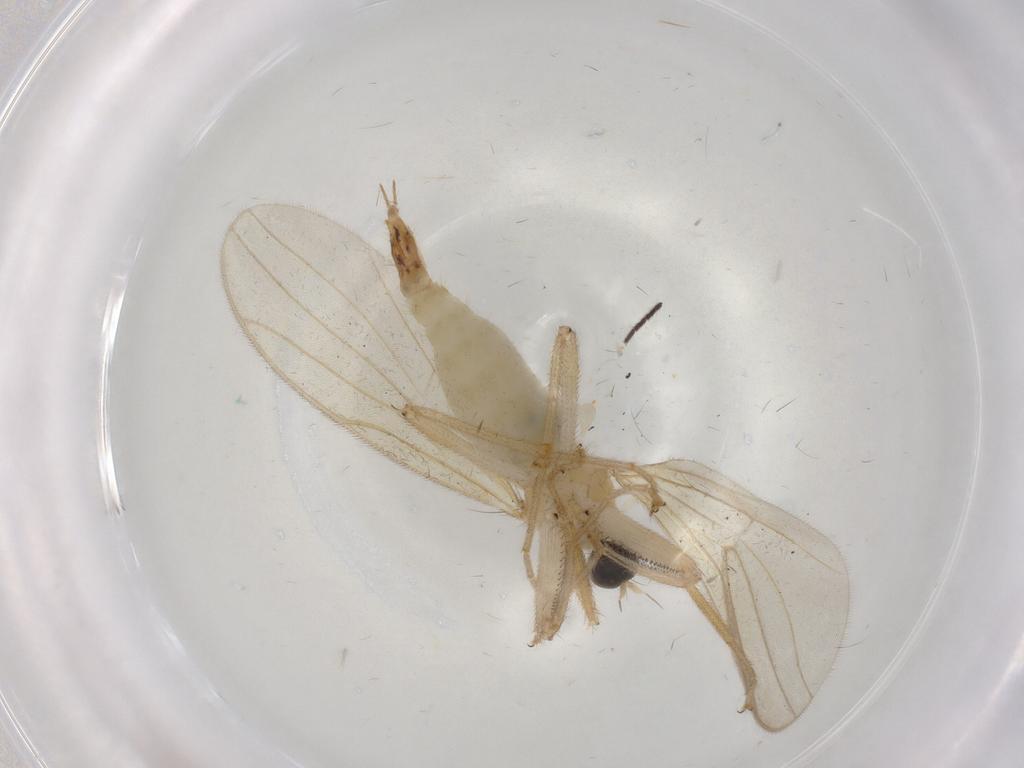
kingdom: Animalia
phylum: Arthropoda
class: Insecta
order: Diptera
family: Hybotidae
